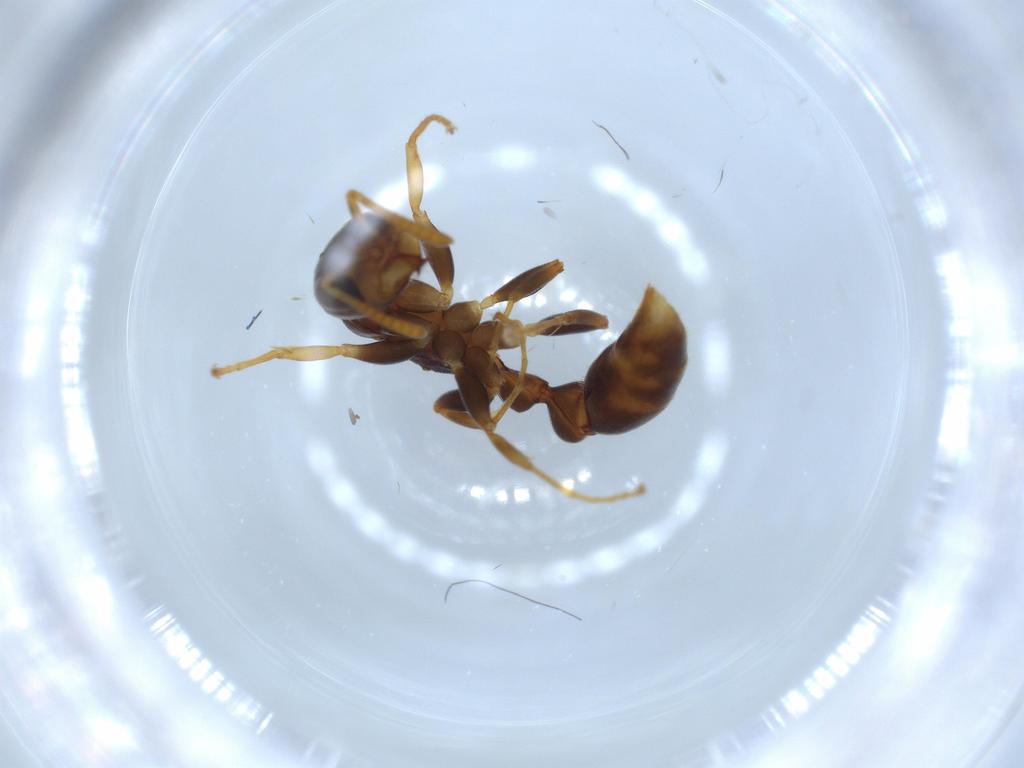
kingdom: Animalia
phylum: Arthropoda
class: Insecta
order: Hymenoptera
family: Formicidae
